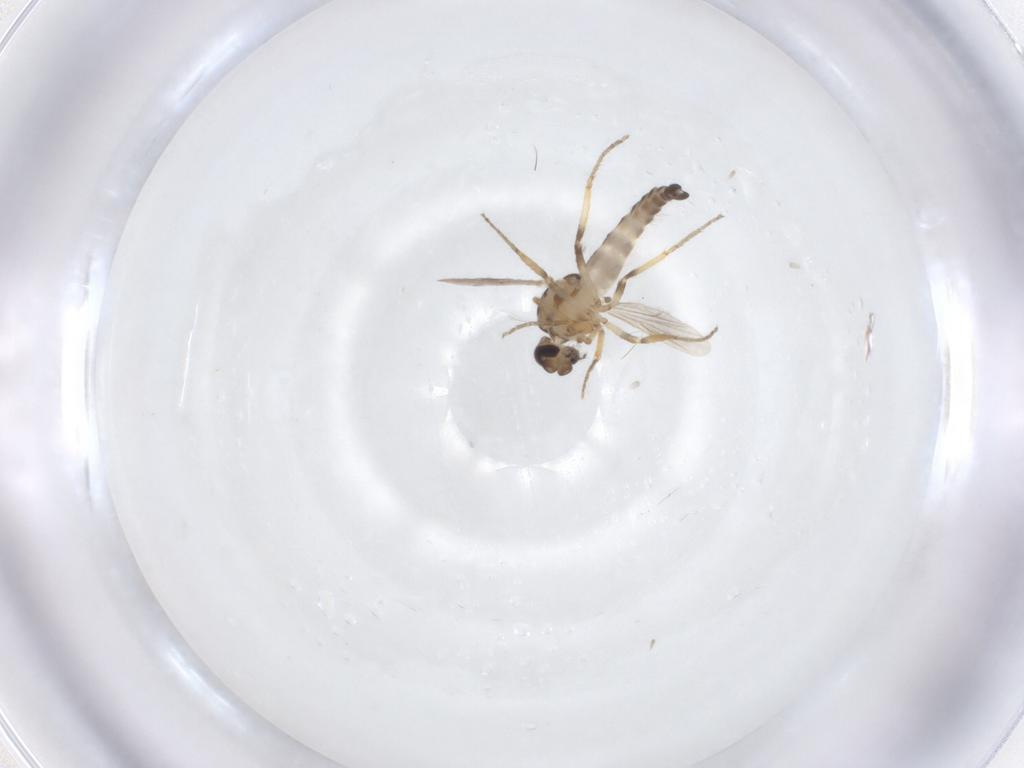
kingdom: Animalia
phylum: Arthropoda
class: Insecta
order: Diptera
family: Ceratopogonidae
